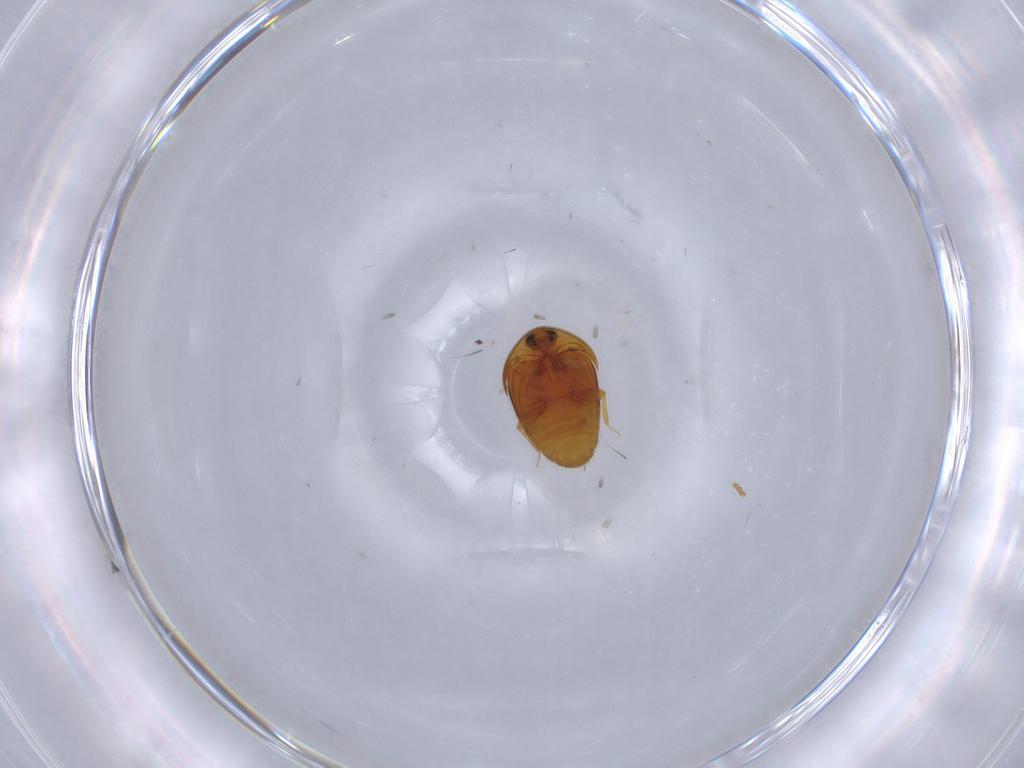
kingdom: Animalia
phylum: Arthropoda
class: Insecta
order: Coleoptera
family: Corylophidae
